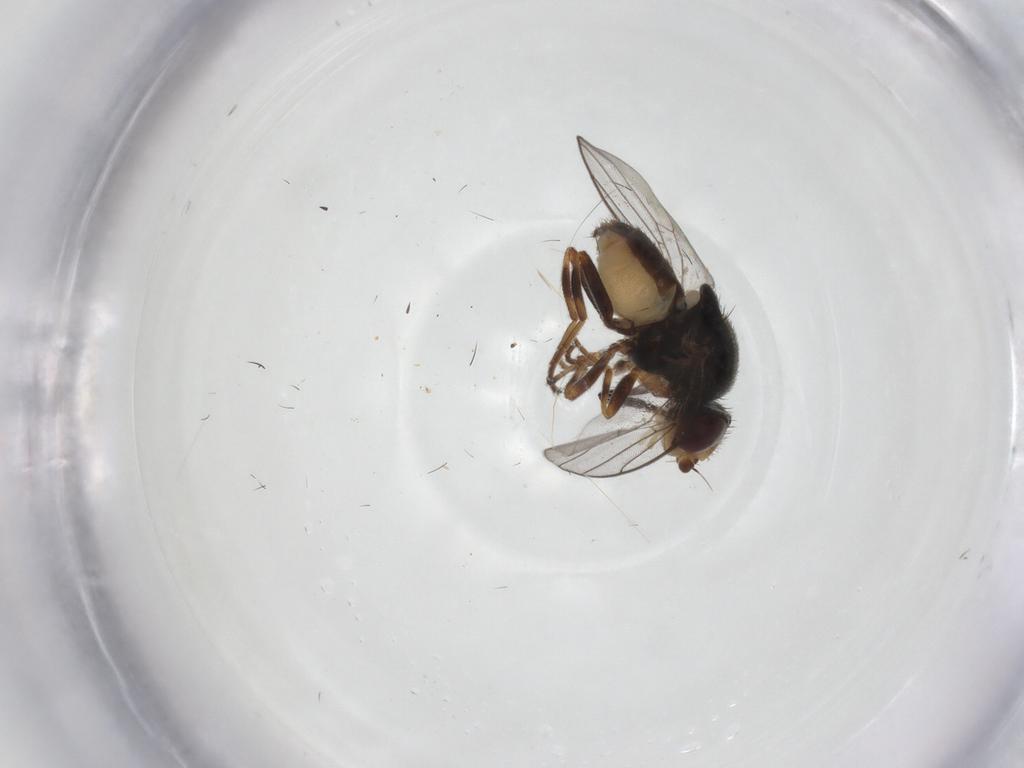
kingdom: Animalia
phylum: Arthropoda
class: Insecta
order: Diptera
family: Chloropidae
